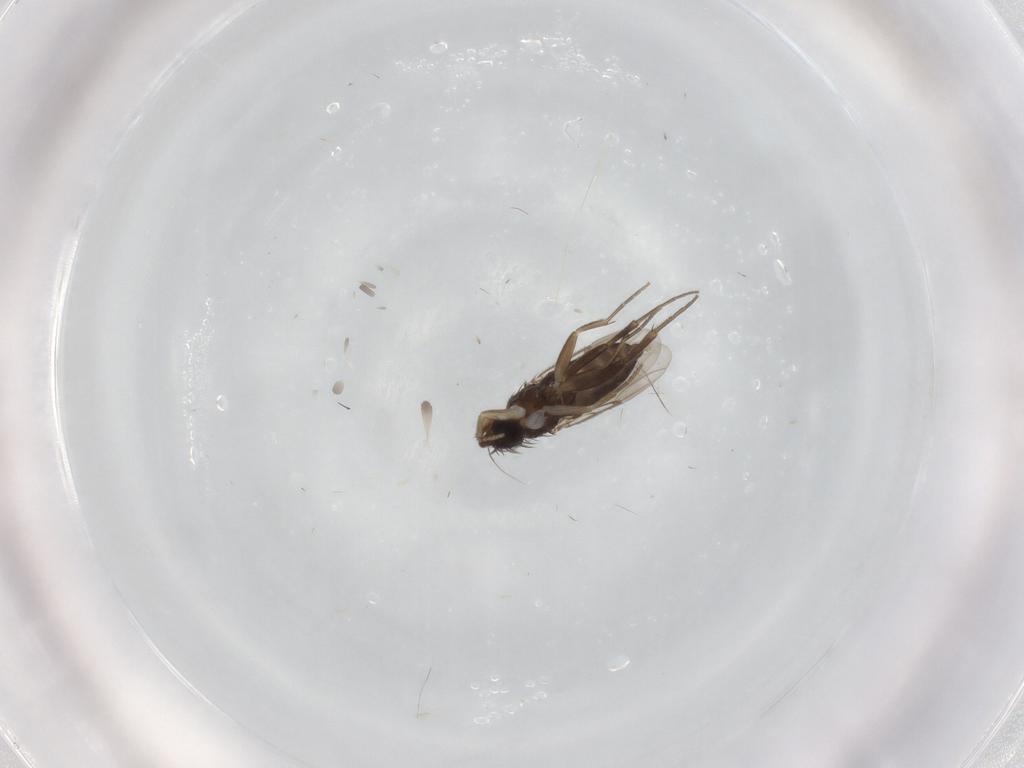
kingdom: Animalia
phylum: Arthropoda
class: Insecta
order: Diptera
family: Phoridae
